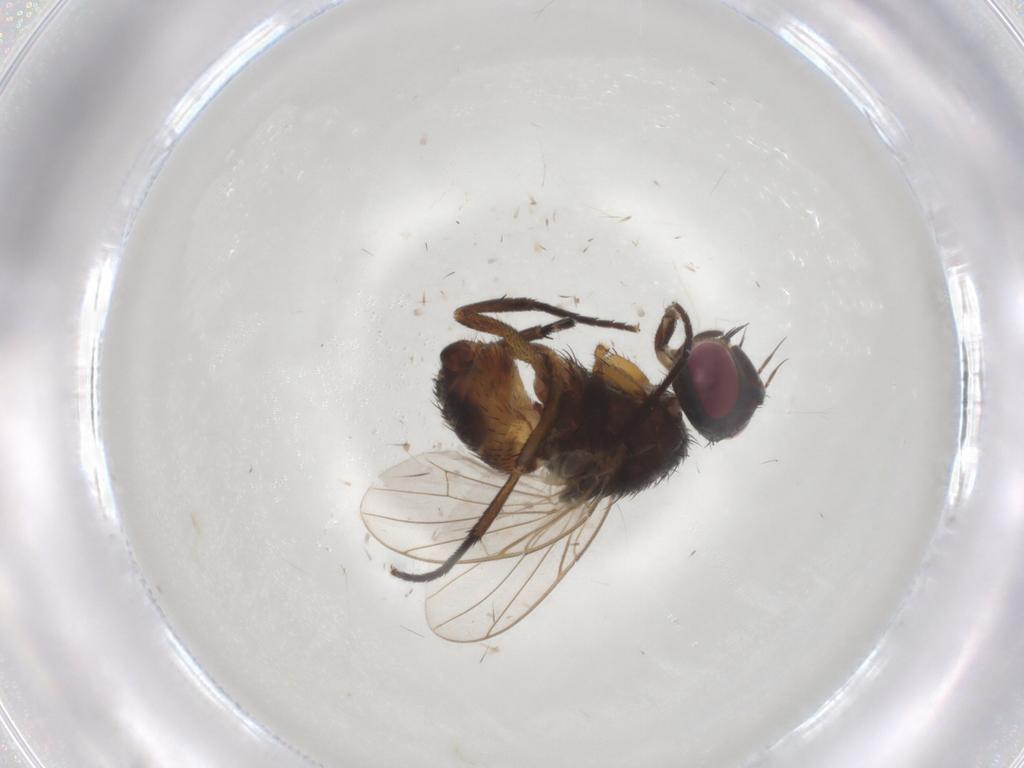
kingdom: Animalia
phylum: Arthropoda
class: Insecta
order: Diptera
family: Muscidae
